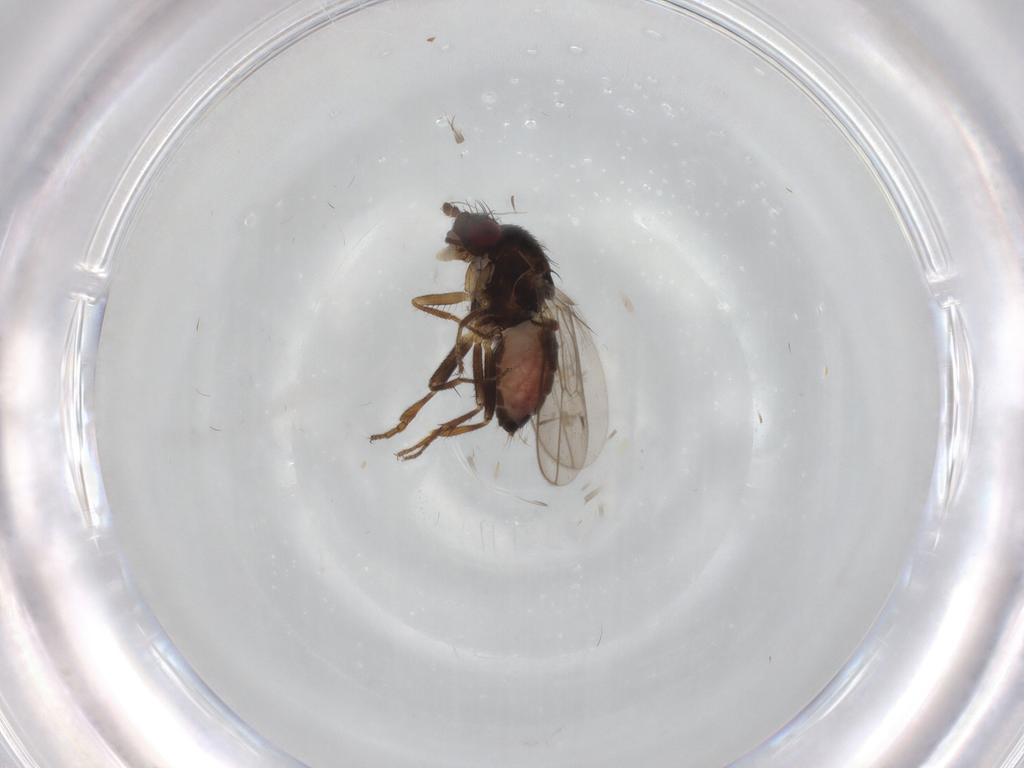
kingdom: Animalia
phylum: Arthropoda
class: Insecta
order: Diptera
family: Sphaeroceridae
